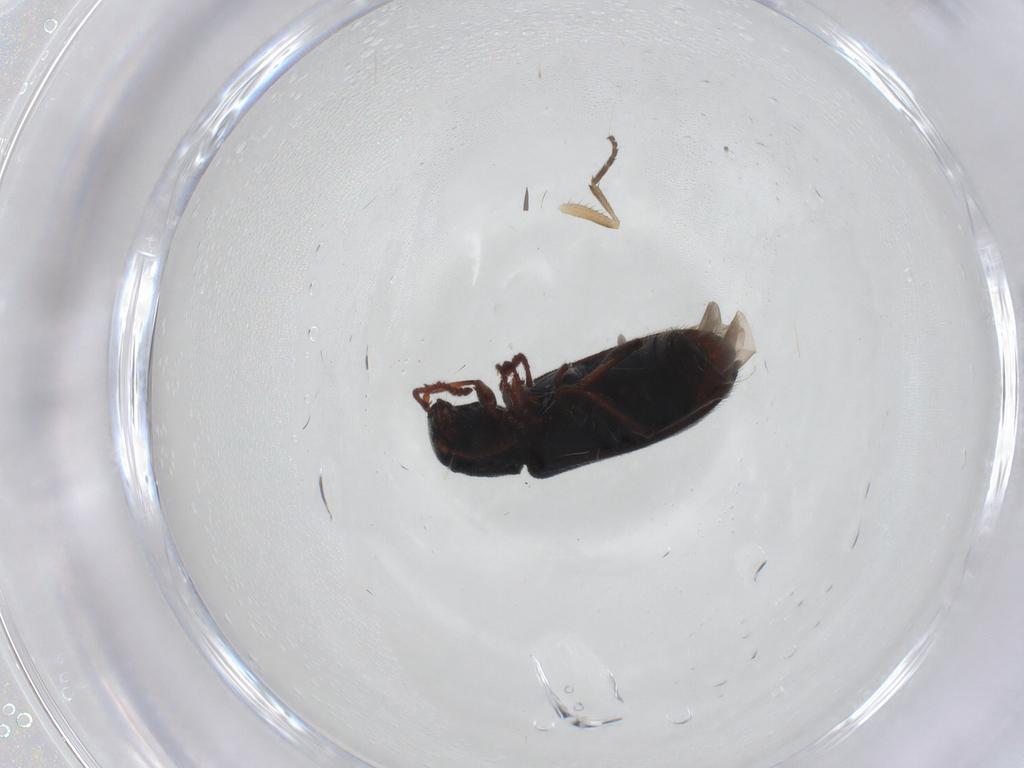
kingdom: Animalia
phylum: Arthropoda
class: Insecta
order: Coleoptera
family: Melyridae
